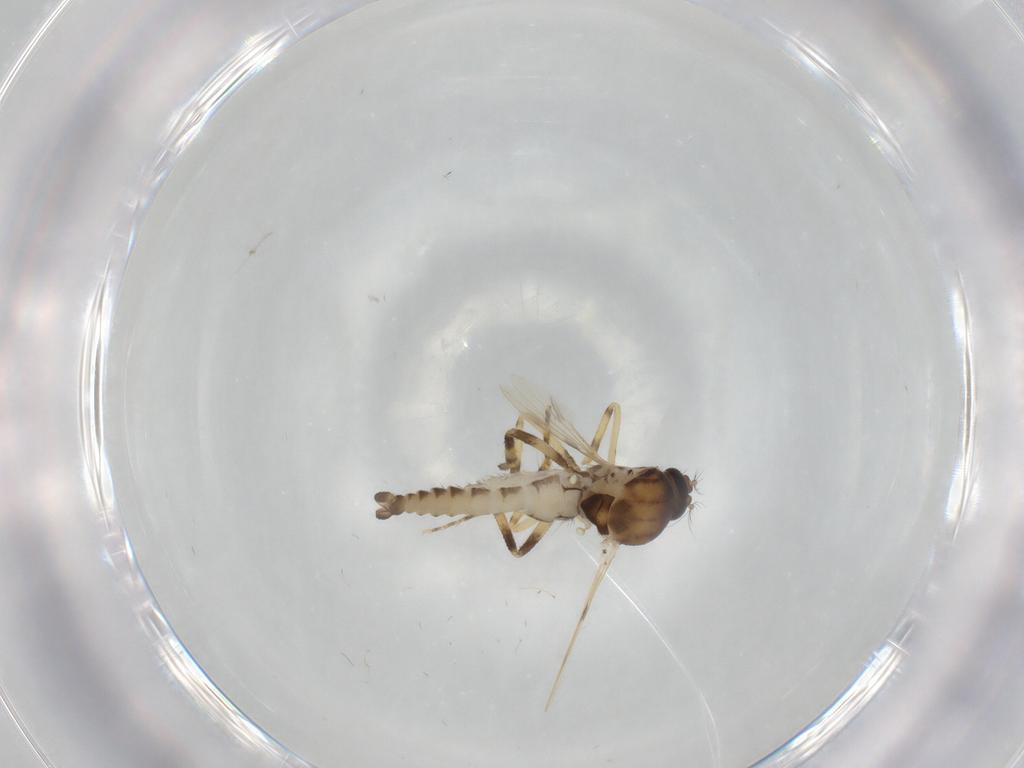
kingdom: Animalia
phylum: Arthropoda
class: Insecta
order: Diptera
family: Ceratopogonidae
